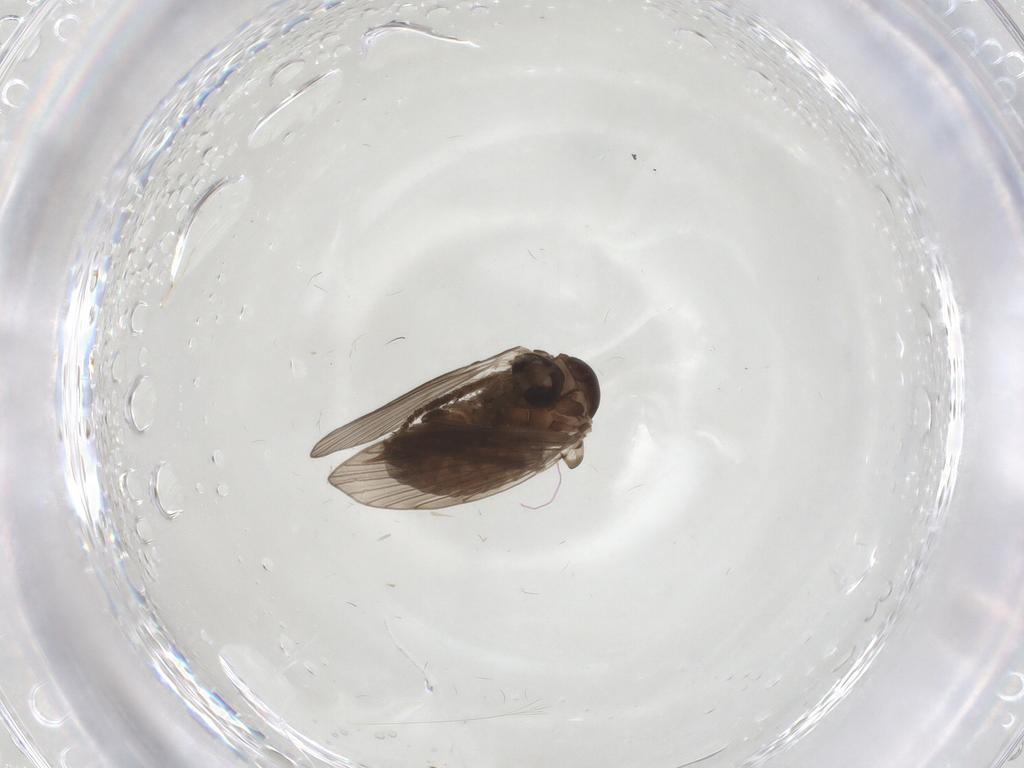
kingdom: Animalia
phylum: Arthropoda
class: Insecta
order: Diptera
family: Psychodidae
